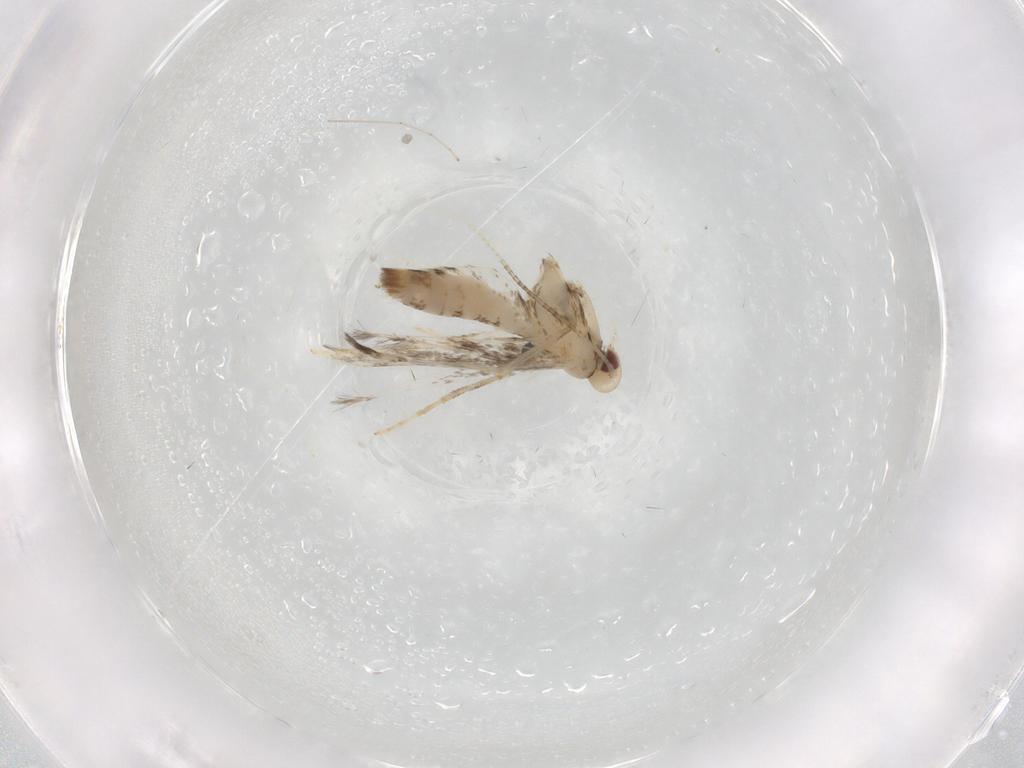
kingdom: Animalia
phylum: Arthropoda
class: Insecta
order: Lepidoptera
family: Gracillariidae
